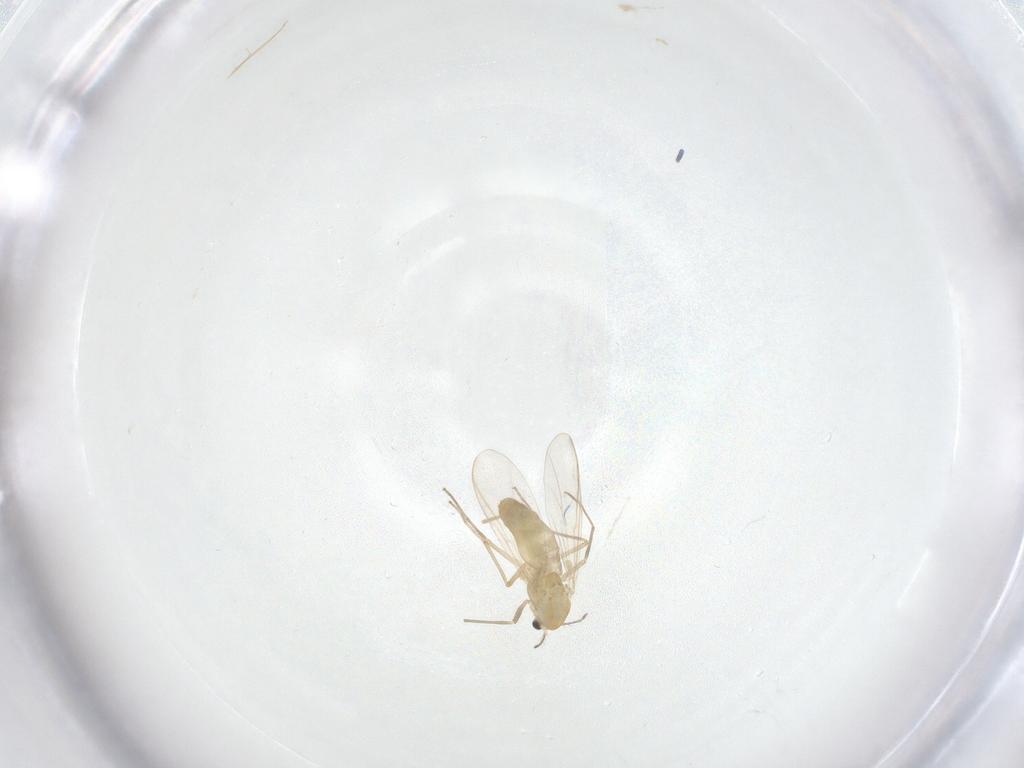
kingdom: Animalia
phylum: Arthropoda
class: Insecta
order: Diptera
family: Chironomidae
